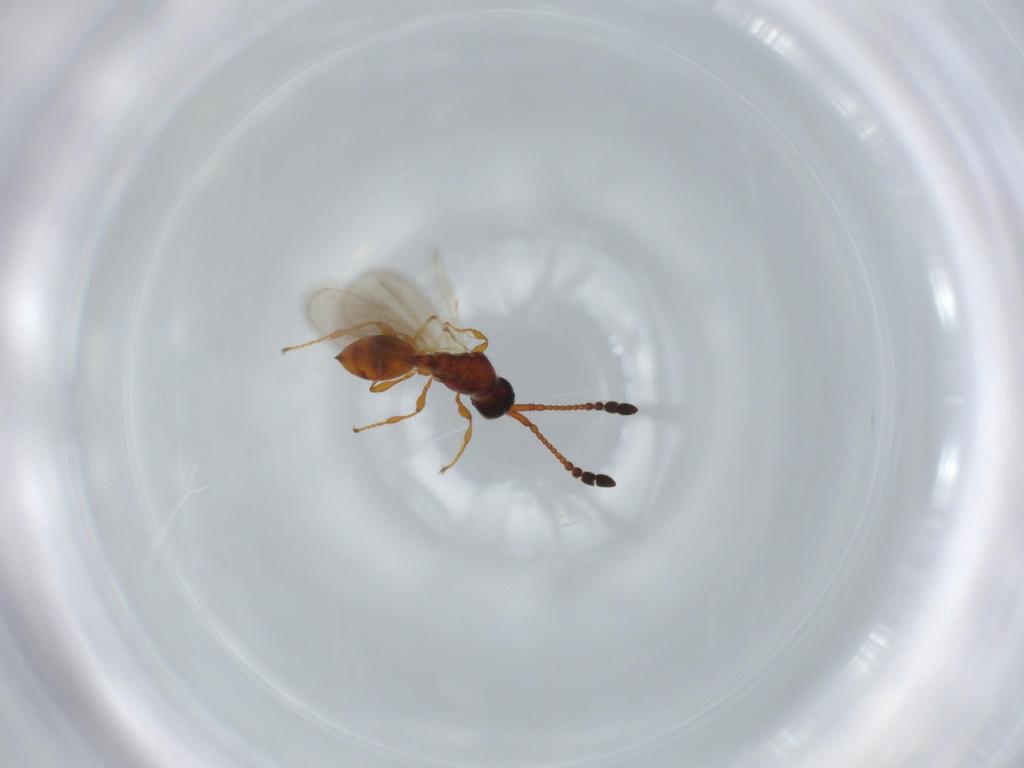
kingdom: Animalia
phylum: Arthropoda
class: Insecta
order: Hymenoptera
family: Diapriidae
